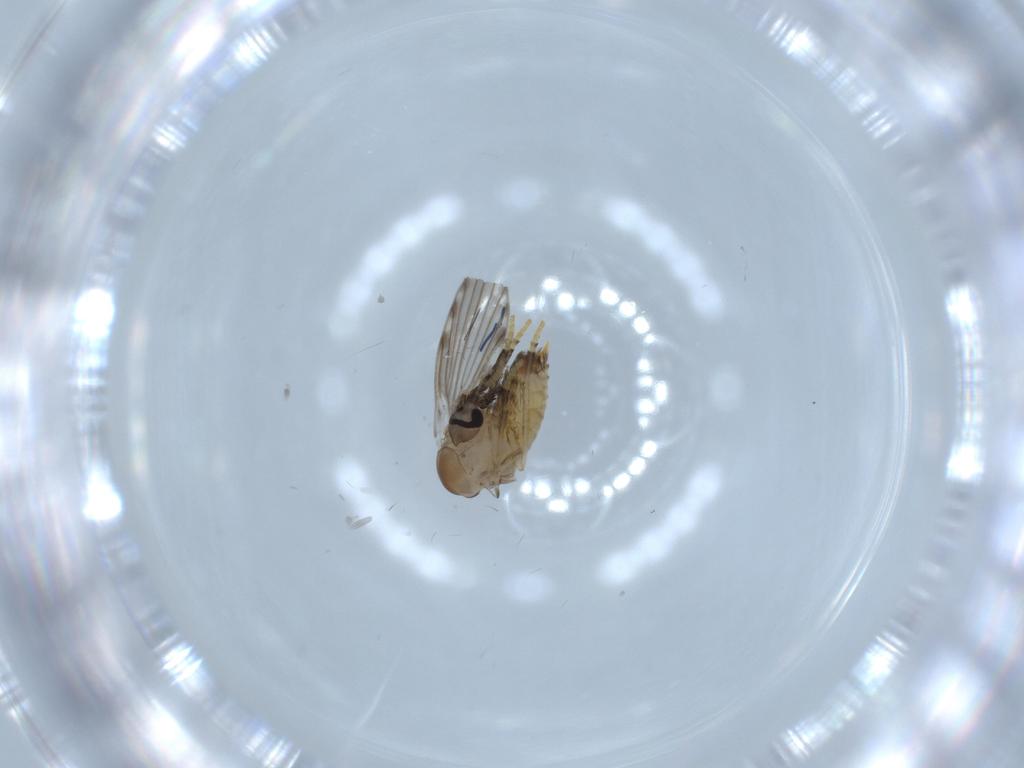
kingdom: Animalia
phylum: Arthropoda
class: Insecta
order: Diptera
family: Psychodidae
